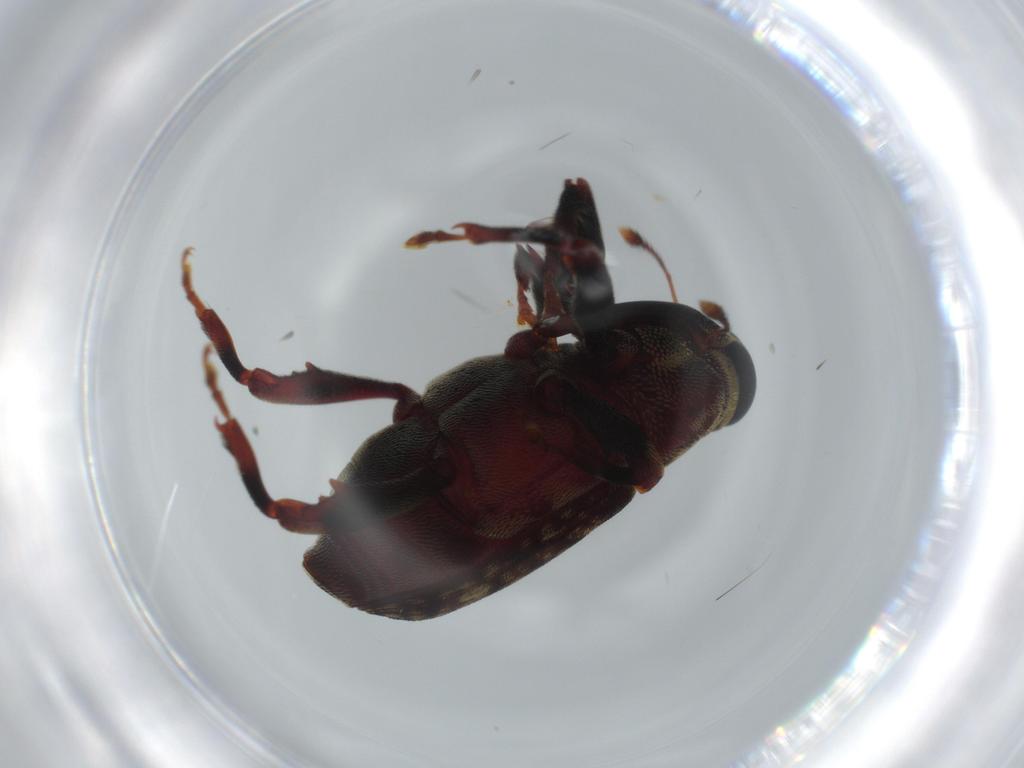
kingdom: Animalia
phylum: Arthropoda
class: Insecta
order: Coleoptera
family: Curculionidae
